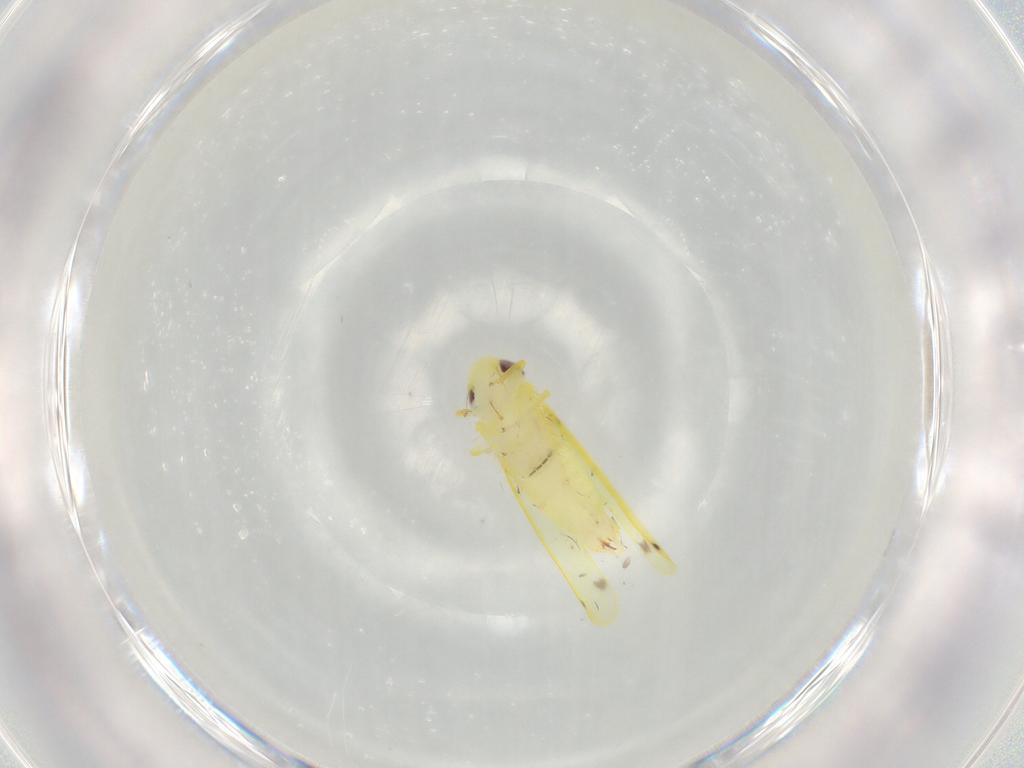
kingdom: Animalia
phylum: Arthropoda
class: Insecta
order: Hemiptera
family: Cicadellidae
